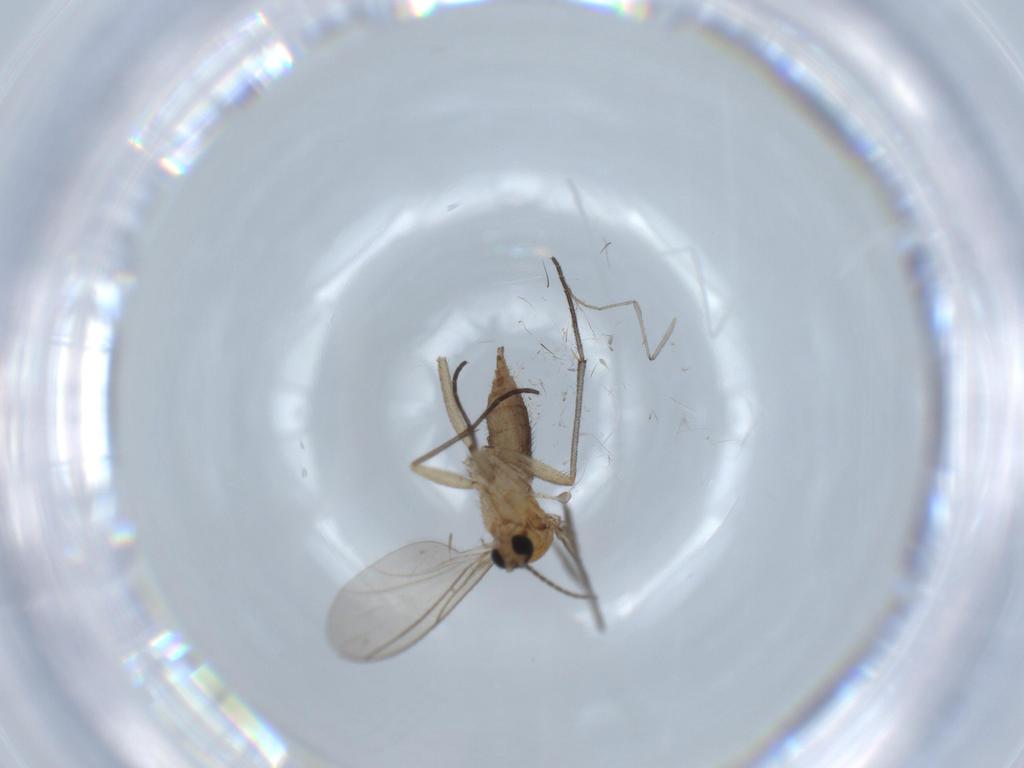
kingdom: Animalia
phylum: Arthropoda
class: Insecta
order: Diptera
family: Sciaridae
